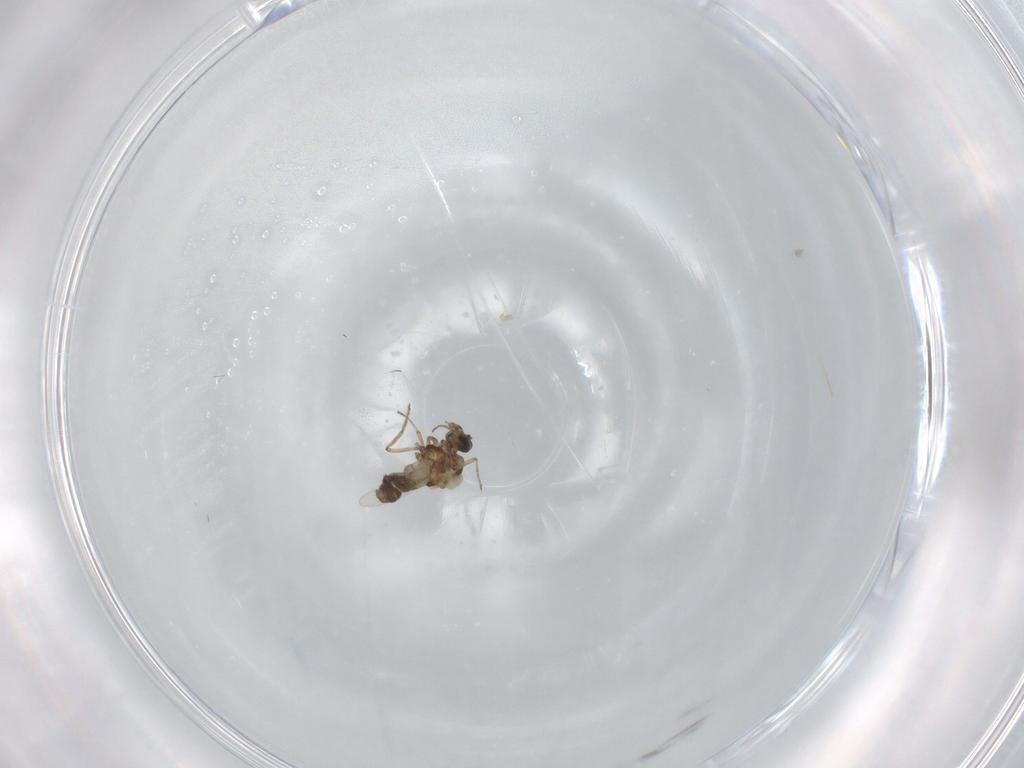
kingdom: Animalia
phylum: Arthropoda
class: Insecta
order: Diptera
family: Ceratopogonidae
